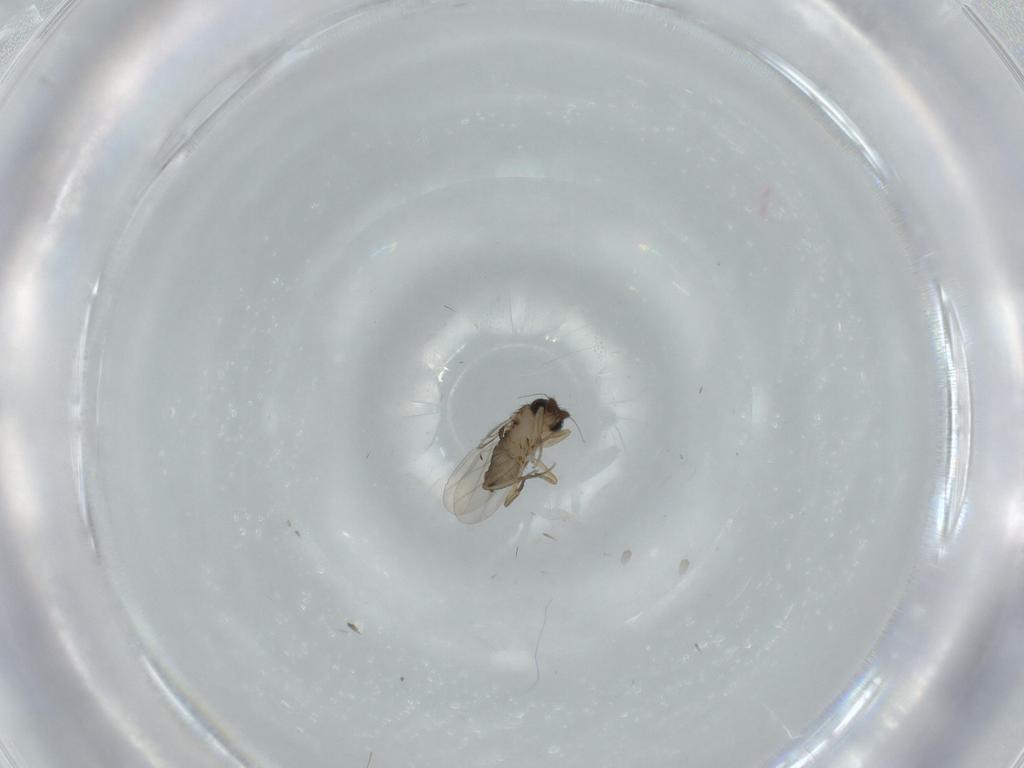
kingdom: Animalia
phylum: Arthropoda
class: Insecta
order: Diptera
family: Phoridae
